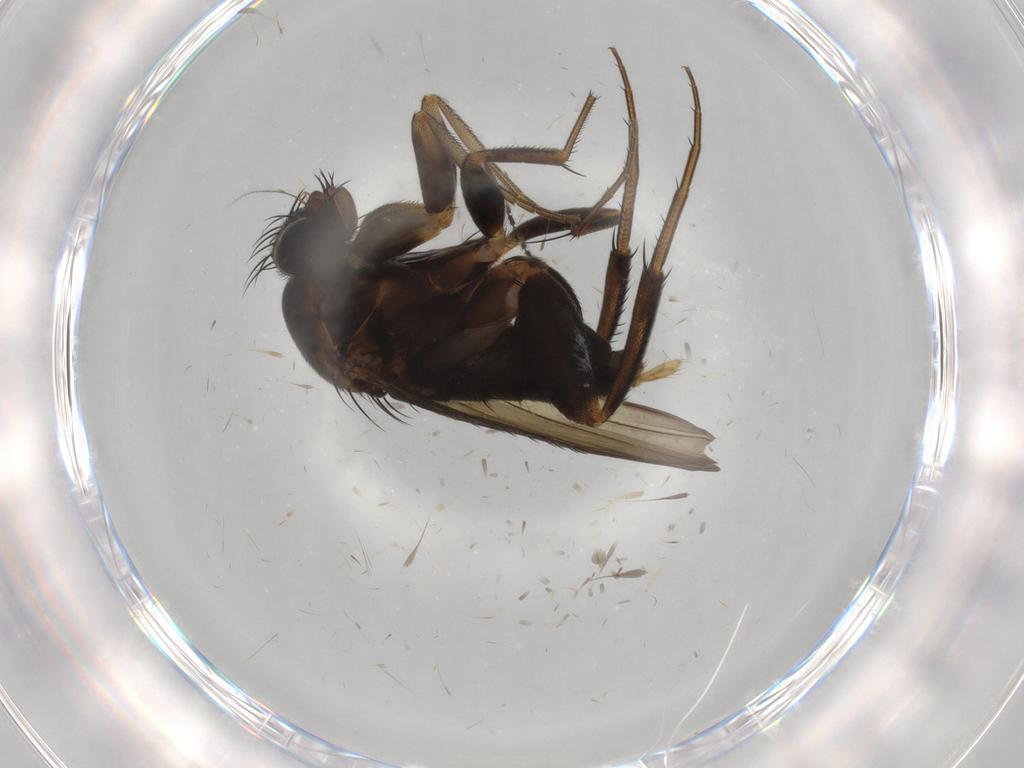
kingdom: Animalia
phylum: Arthropoda
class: Insecta
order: Diptera
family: Phoridae
